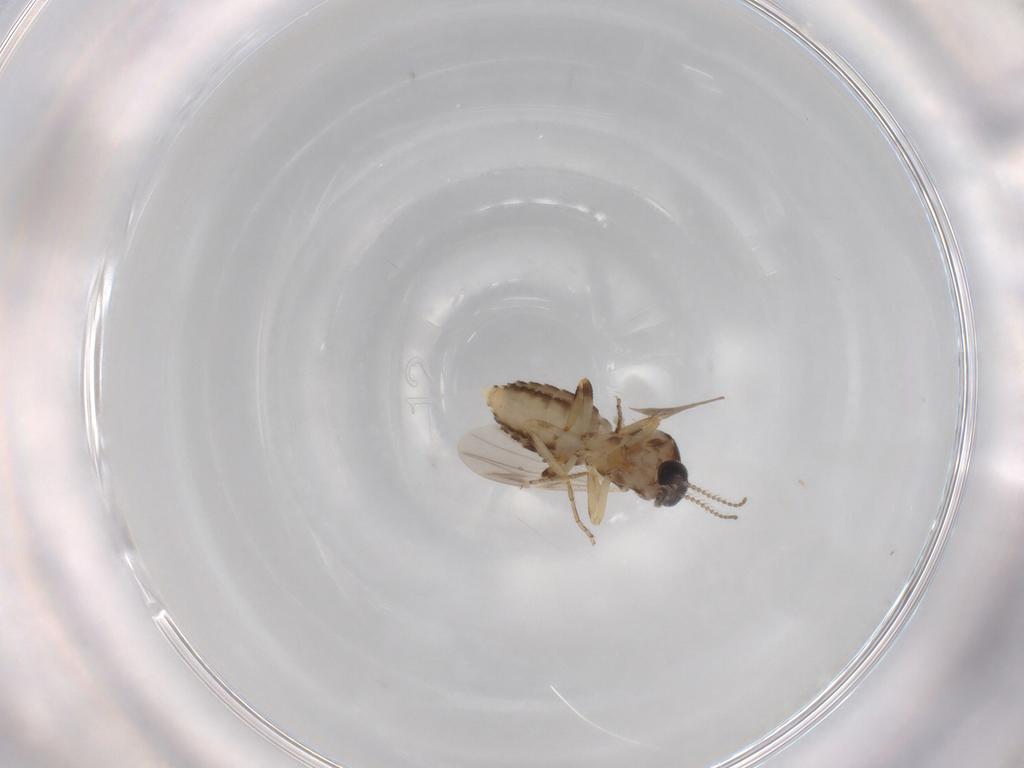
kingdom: Animalia
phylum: Arthropoda
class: Insecta
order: Diptera
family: Ceratopogonidae
